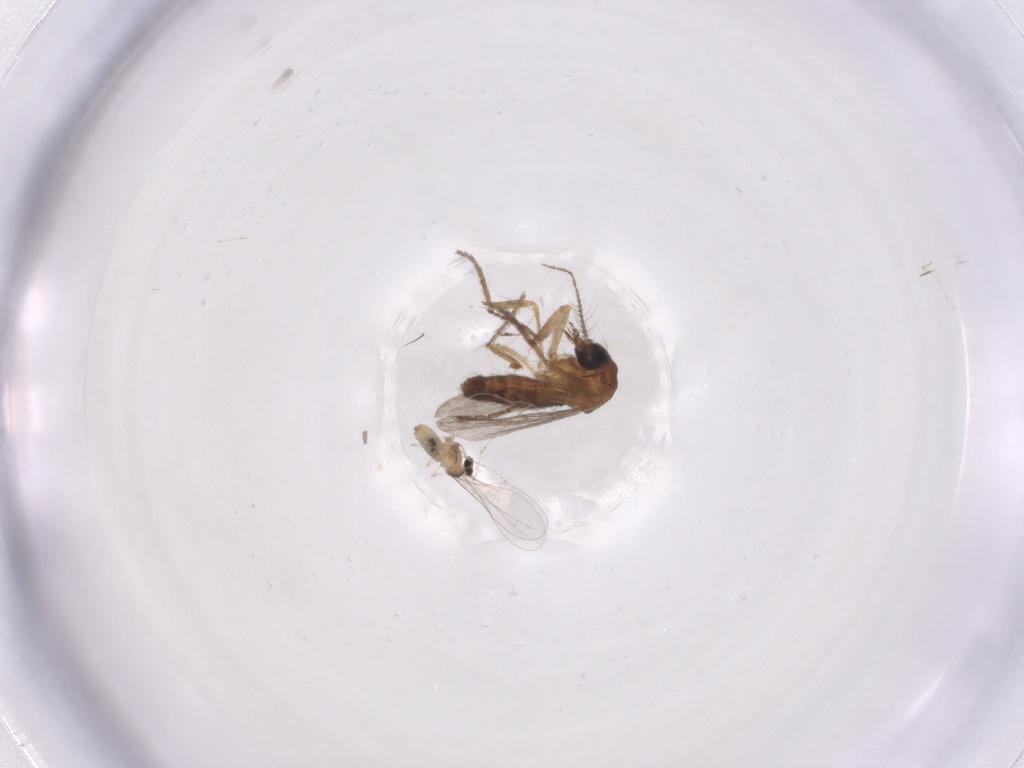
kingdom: Animalia
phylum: Arthropoda
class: Insecta
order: Diptera
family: Cecidomyiidae
